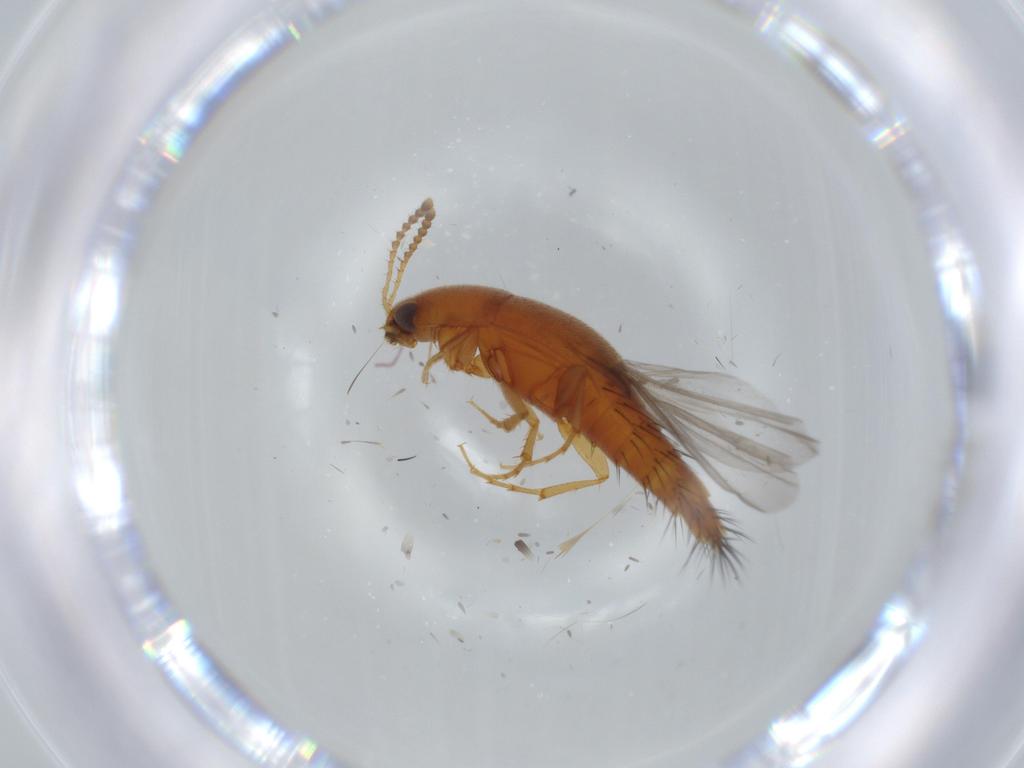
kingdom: Animalia
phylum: Arthropoda
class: Insecta
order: Coleoptera
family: Staphylinidae
